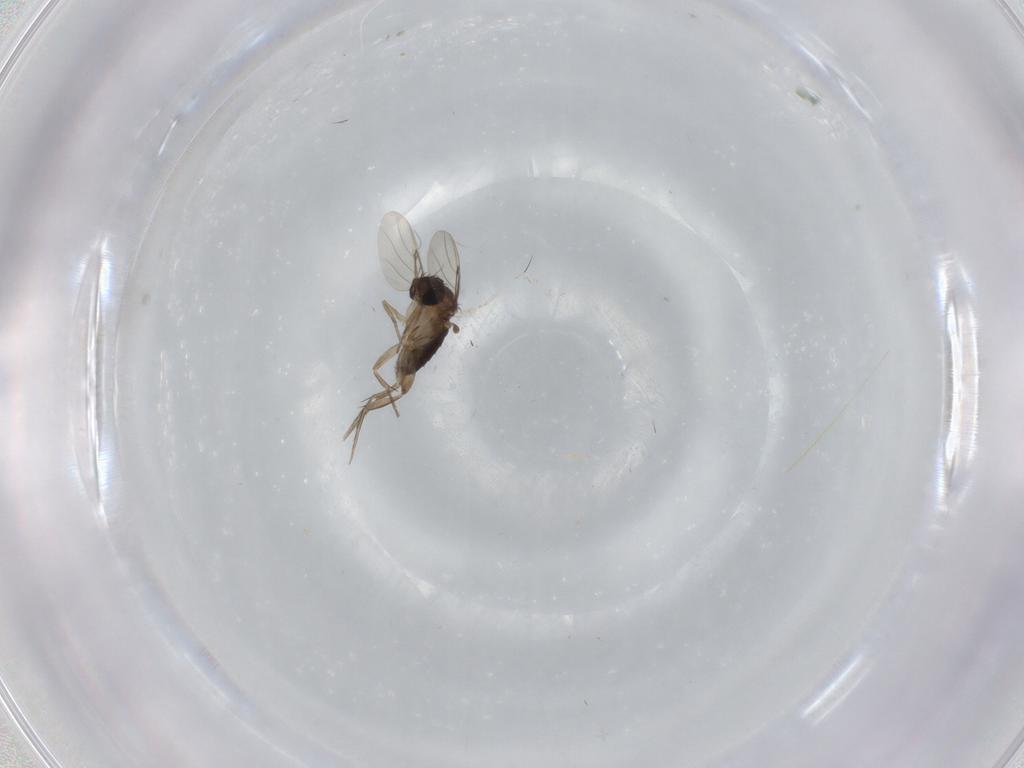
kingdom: Animalia
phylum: Arthropoda
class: Insecta
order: Diptera
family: Phoridae
